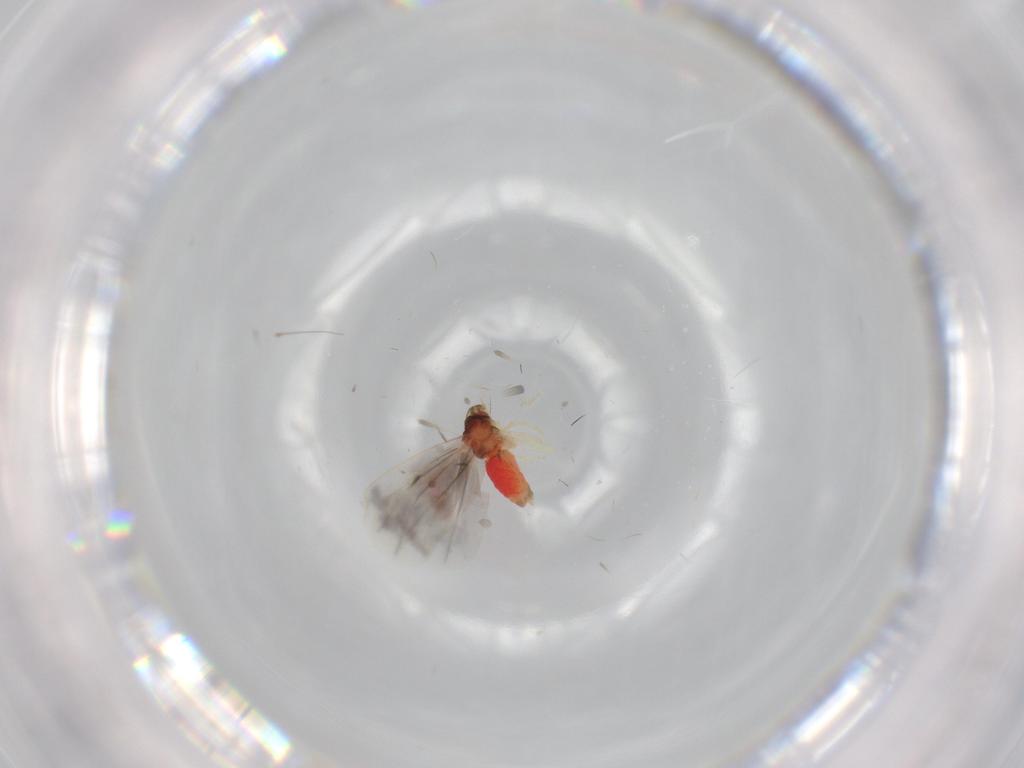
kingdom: Animalia
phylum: Arthropoda
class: Insecta
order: Hemiptera
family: Aleyrodidae
